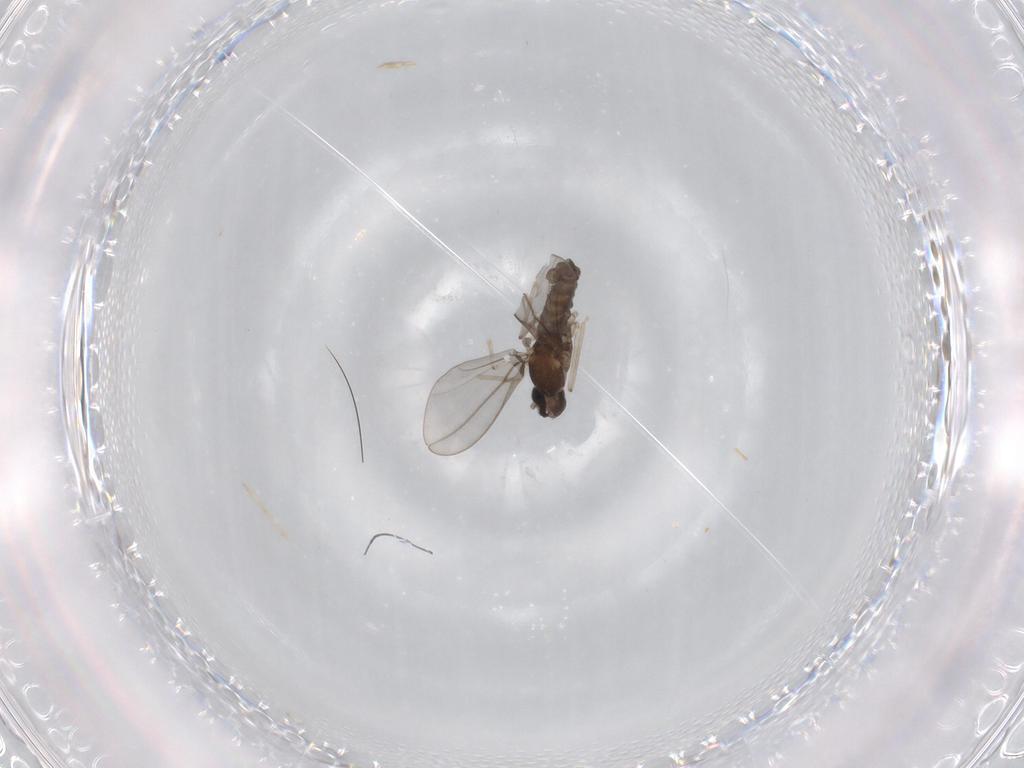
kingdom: Animalia
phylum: Arthropoda
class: Insecta
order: Diptera
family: Cecidomyiidae
